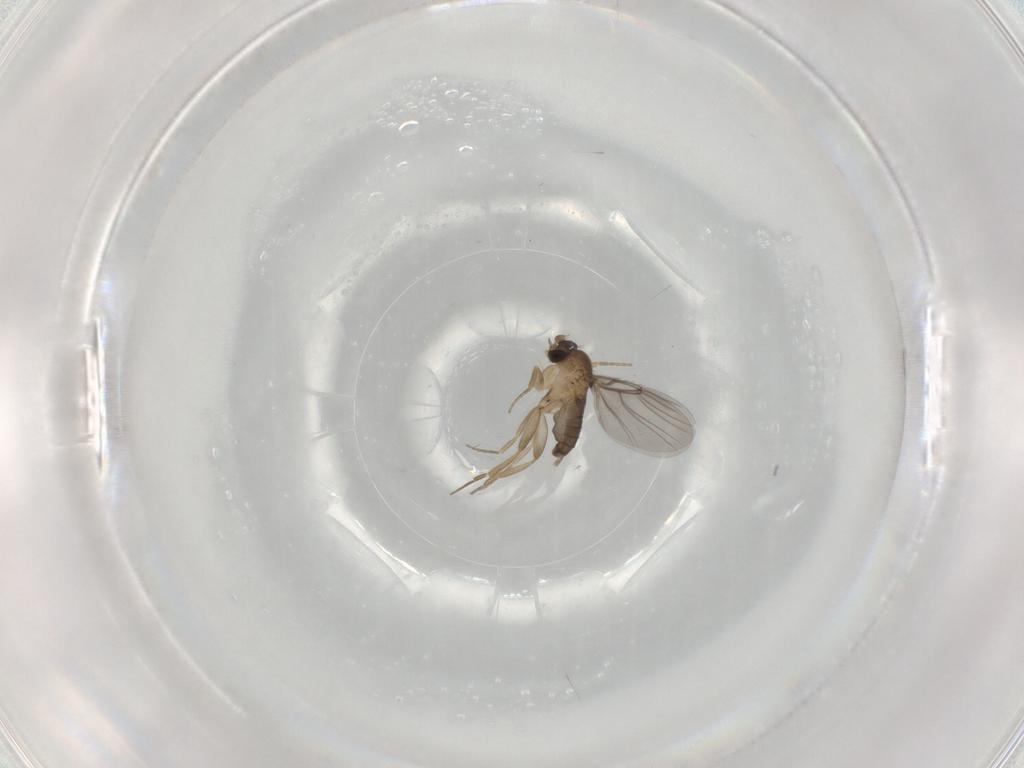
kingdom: Animalia
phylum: Arthropoda
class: Insecta
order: Diptera
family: Phoridae
